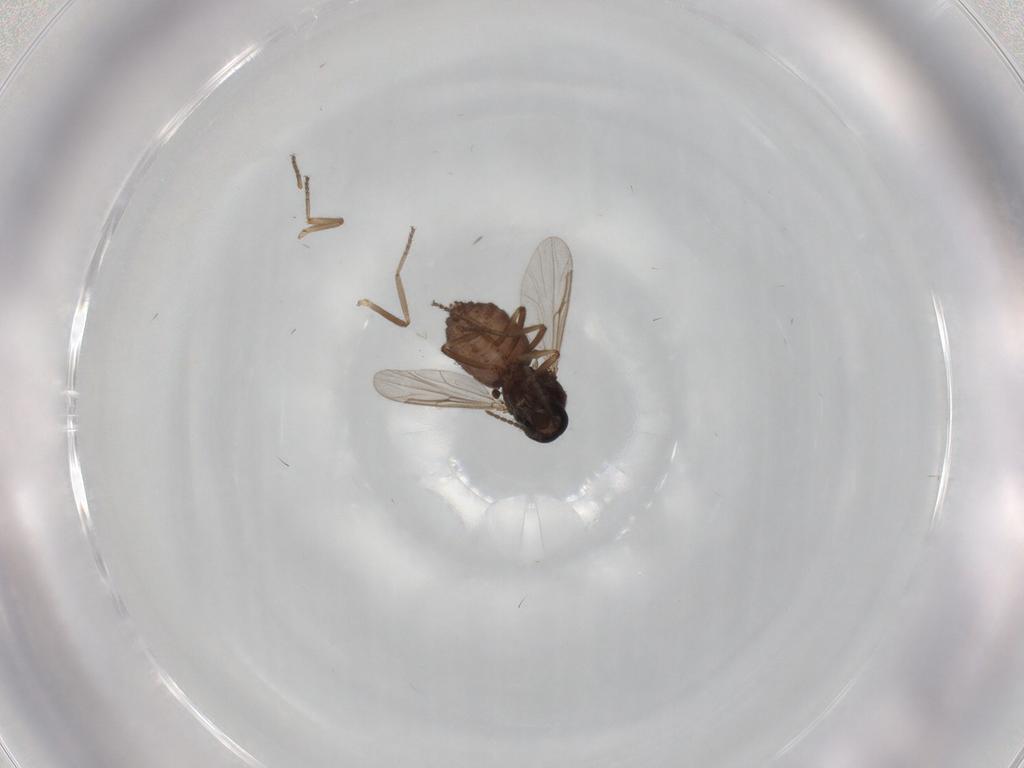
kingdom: Animalia
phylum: Arthropoda
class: Insecta
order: Diptera
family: Ceratopogonidae
